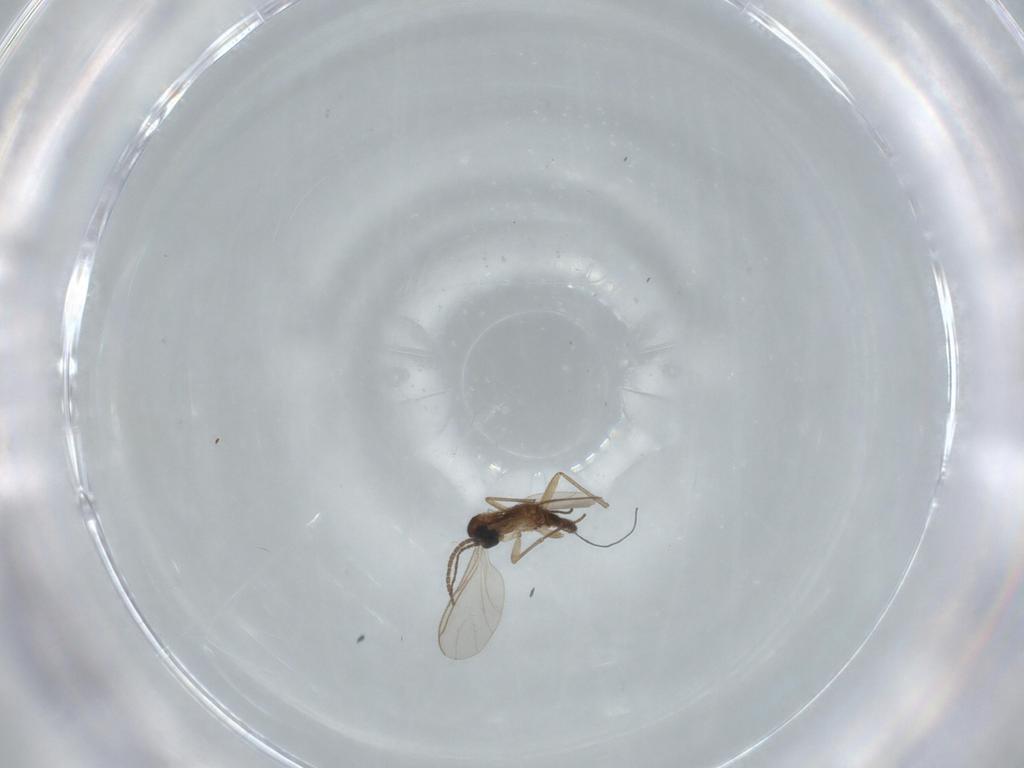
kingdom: Animalia
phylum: Arthropoda
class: Insecta
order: Diptera
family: Sciaridae
